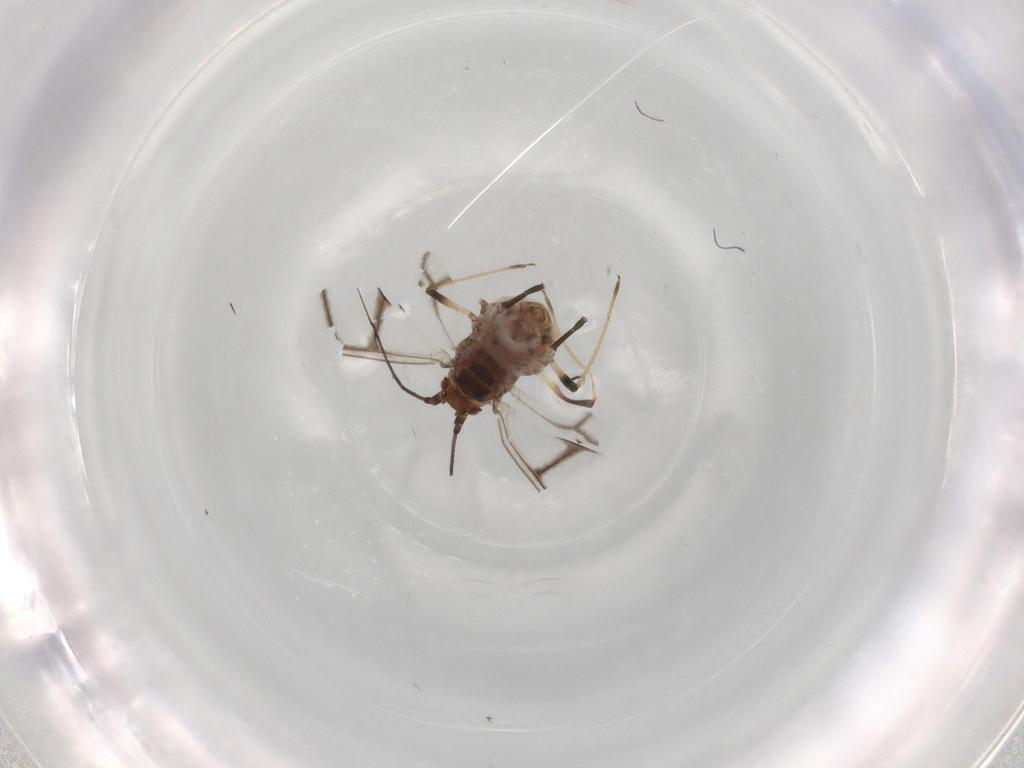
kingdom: Animalia
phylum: Arthropoda
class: Insecta
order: Hemiptera
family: Aphididae
